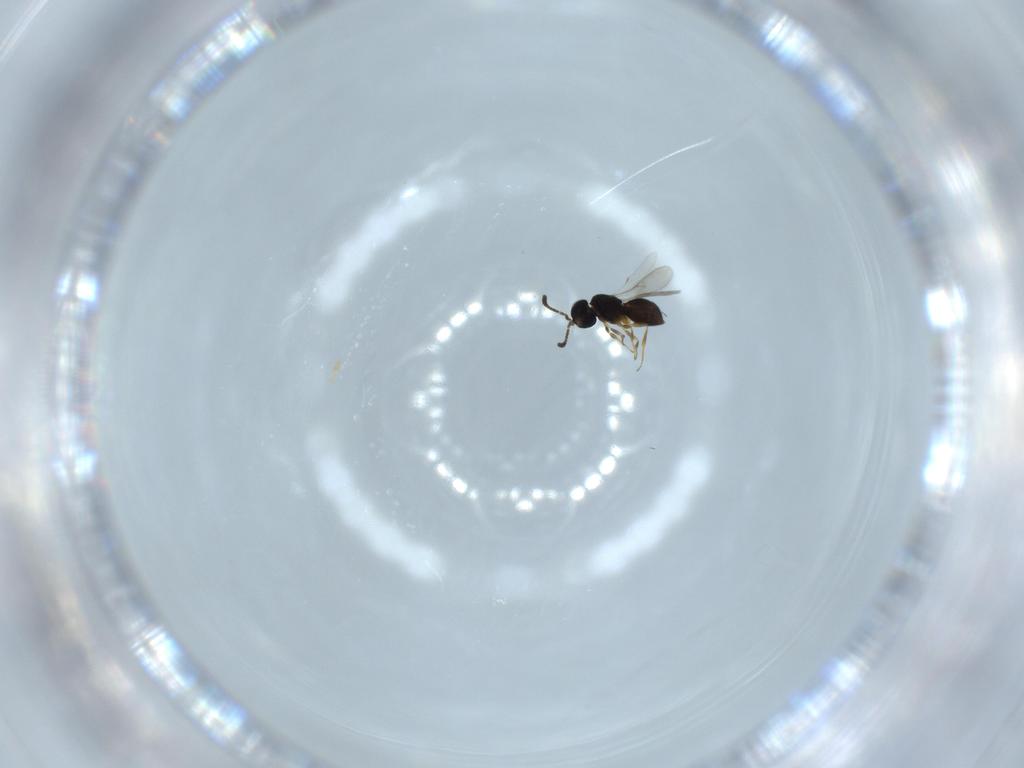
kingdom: Animalia
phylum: Arthropoda
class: Insecta
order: Hymenoptera
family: Scelionidae
